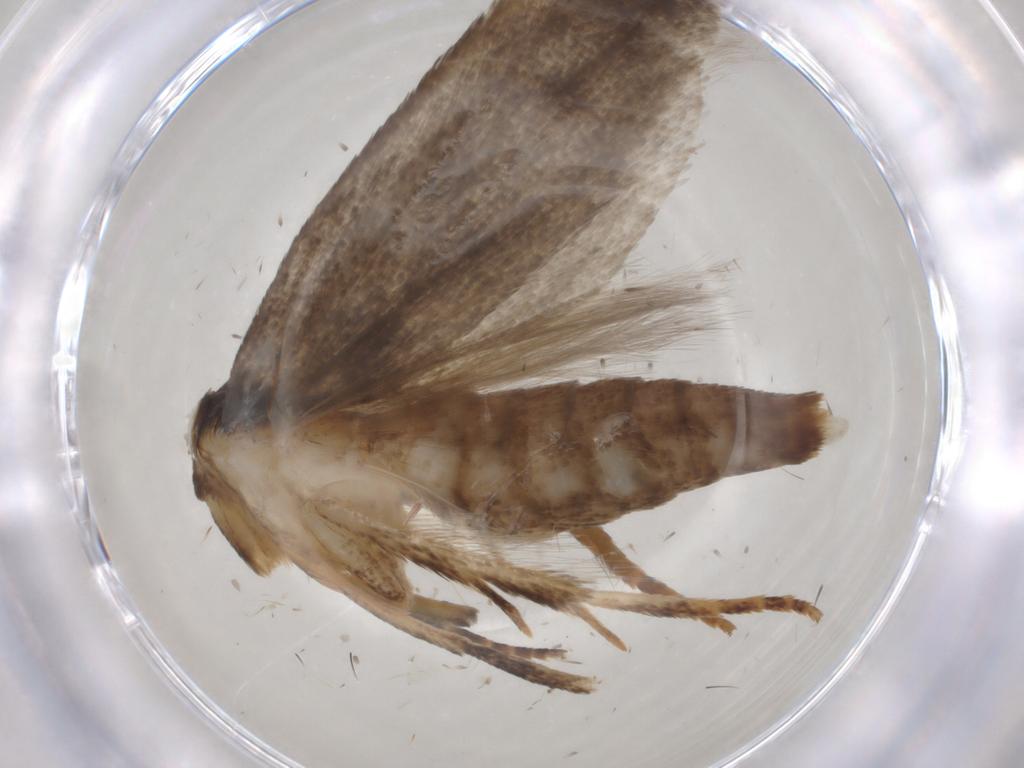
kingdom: Animalia
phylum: Arthropoda
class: Insecta
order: Lepidoptera
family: Gelechiidae
